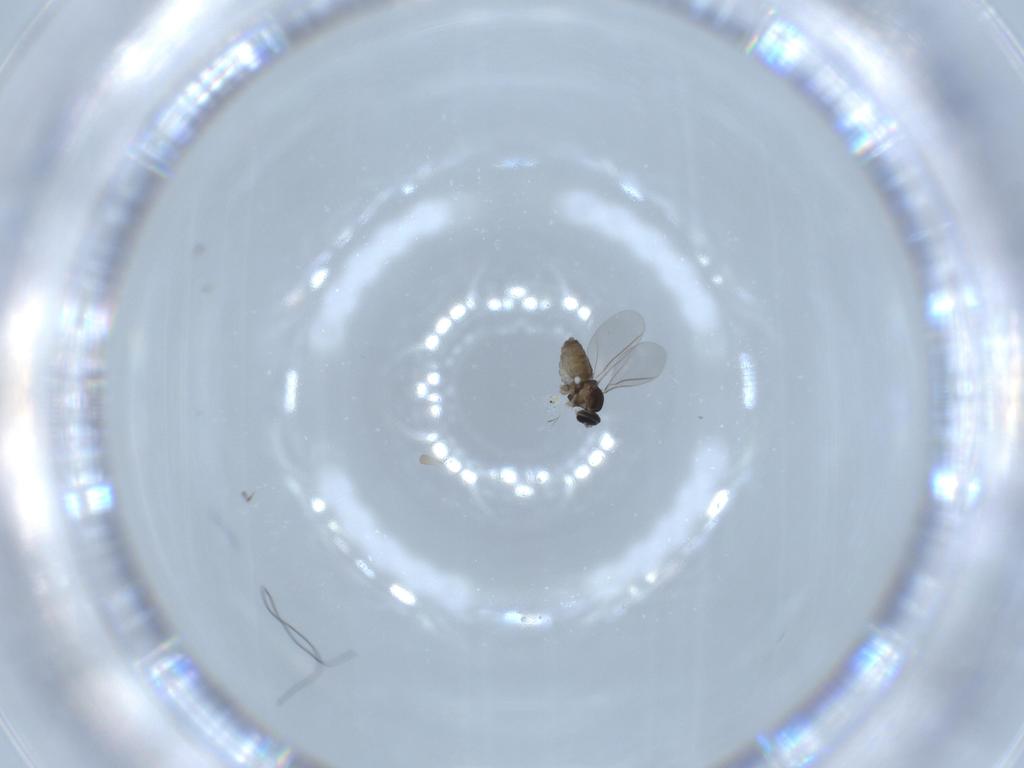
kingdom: Animalia
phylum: Arthropoda
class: Insecta
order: Diptera
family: Cecidomyiidae
